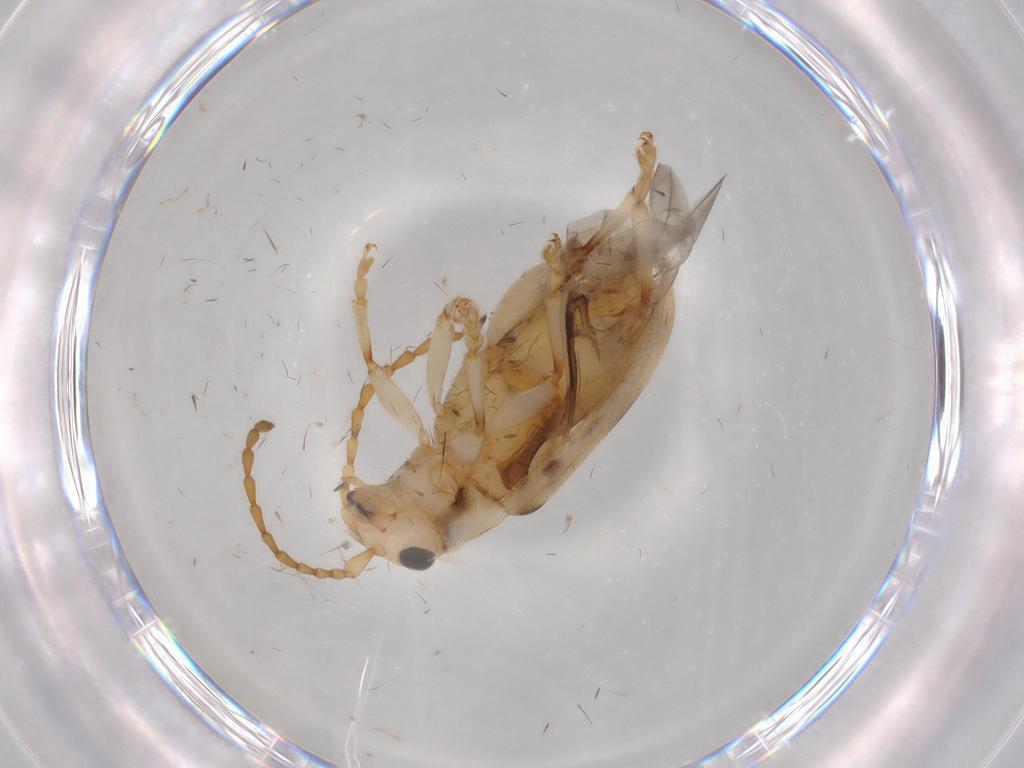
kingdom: Animalia
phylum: Arthropoda
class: Insecta
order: Coleoptera
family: Chrysomelidae
